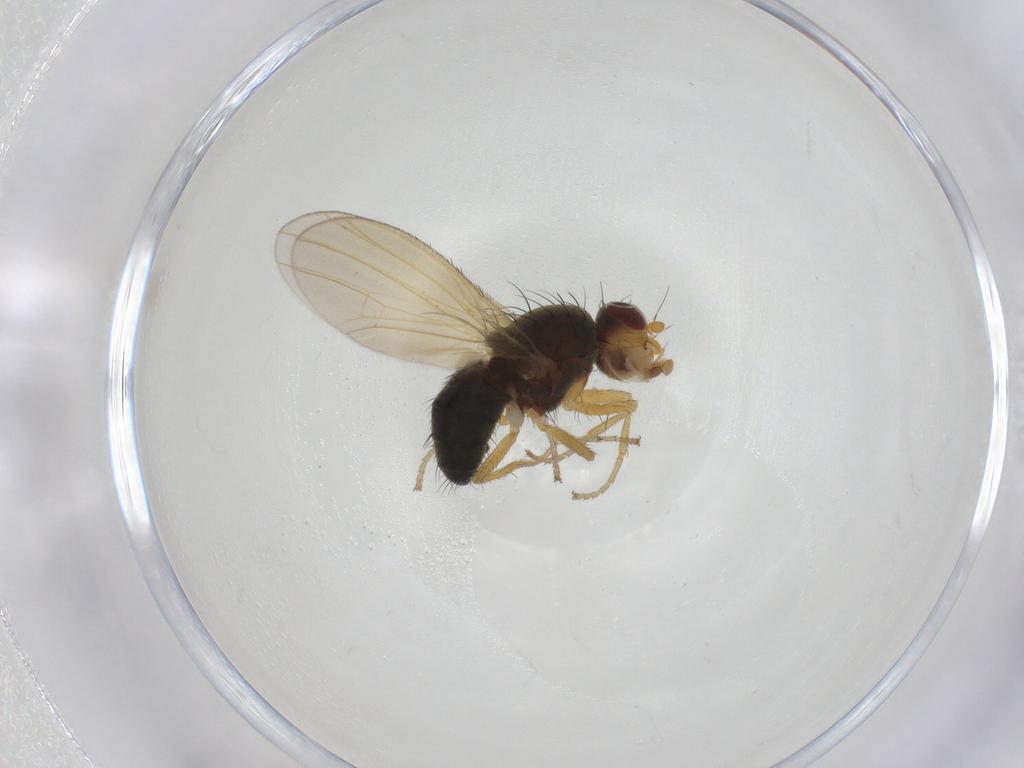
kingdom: Animalia
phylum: Arthropoda
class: Insecta
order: Diptera
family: Heleomyzidae
